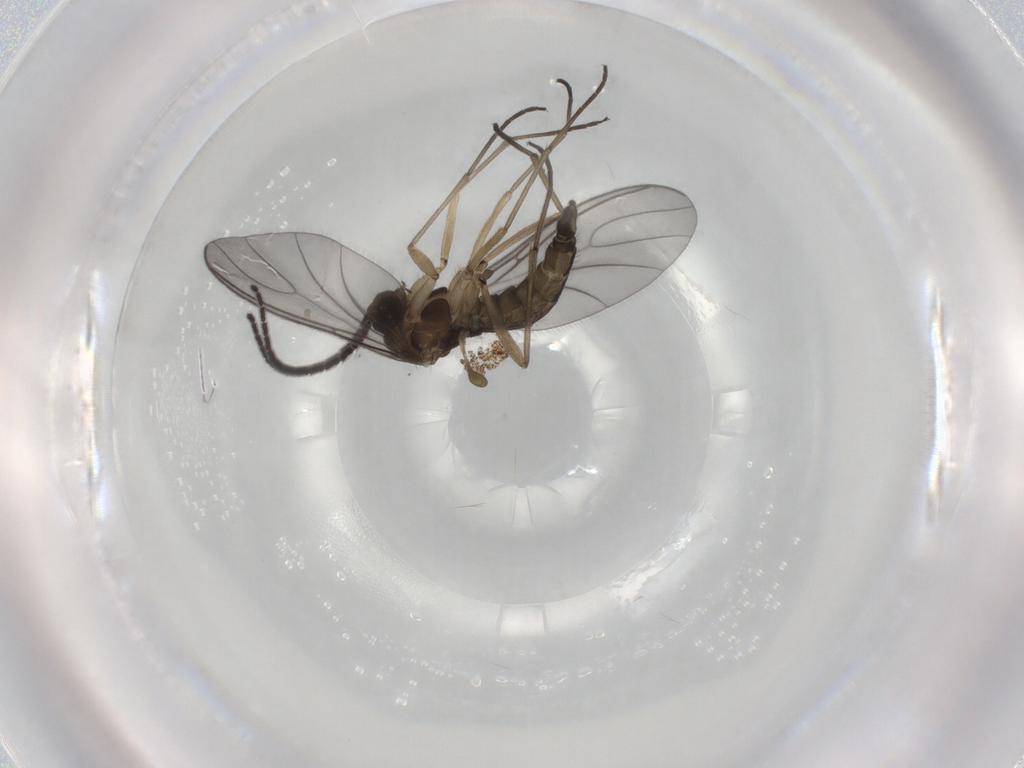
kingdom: Animalia
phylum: Arthropoda
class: Insecta
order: Diptera
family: Sciaridae
